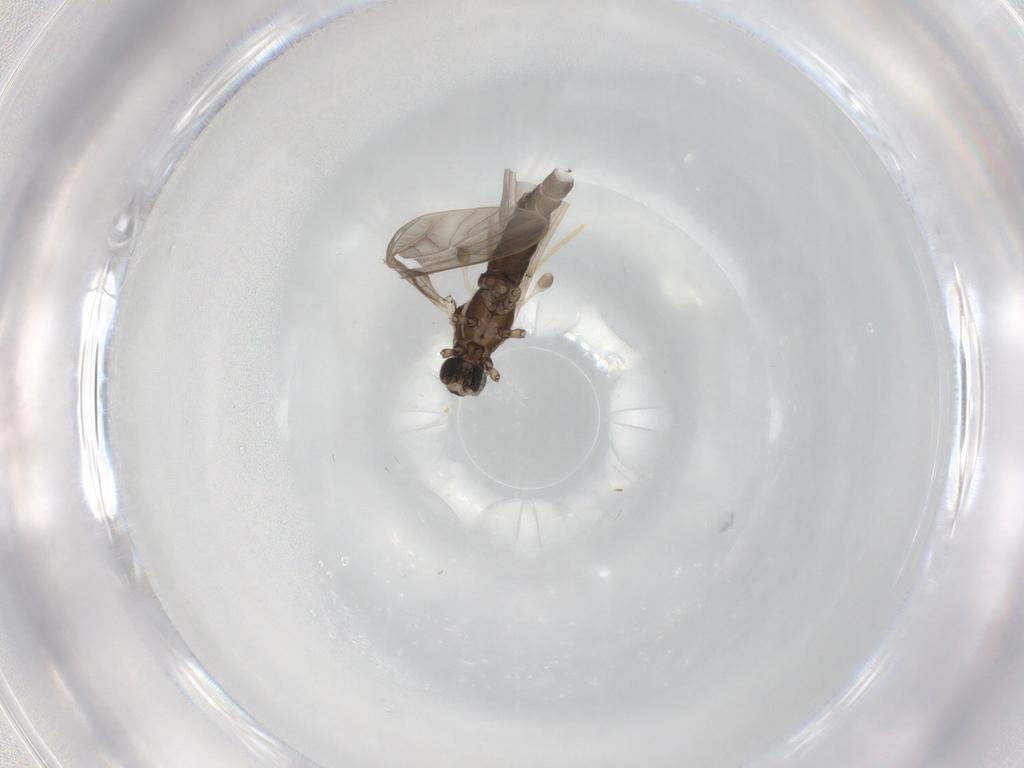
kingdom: Animalia
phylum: Arthropoda
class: Insecta
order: Diptera
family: Limoniidae
